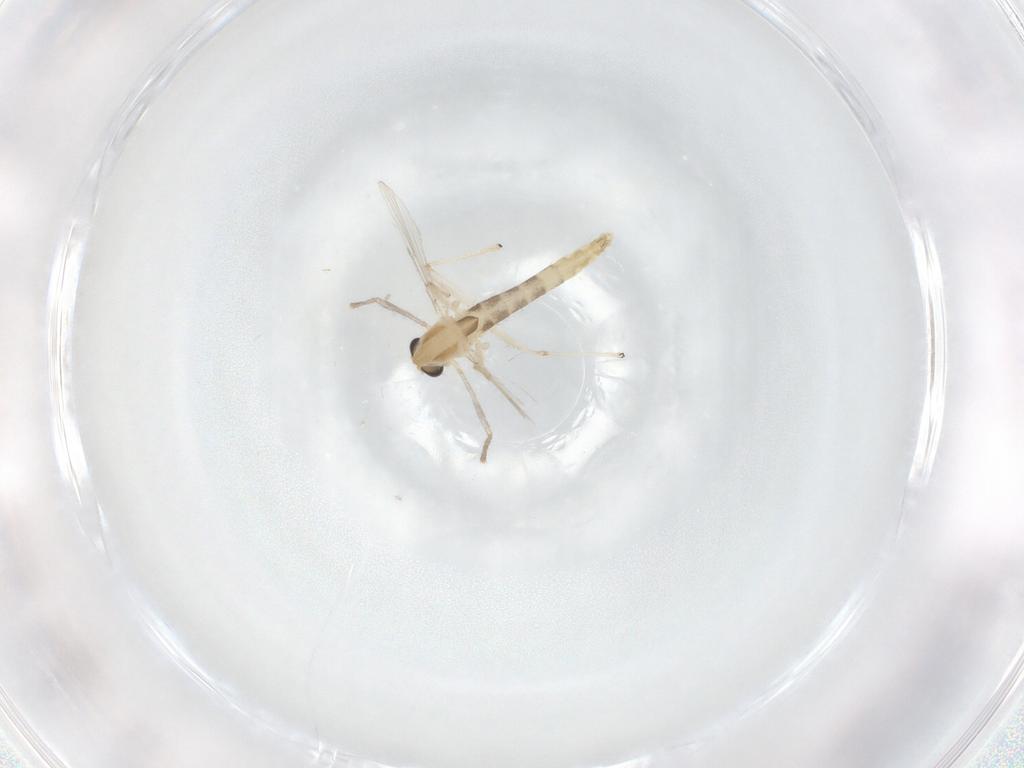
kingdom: Animalia
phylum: Arthropoda
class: Insecta
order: Diptera
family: Chironomidae
